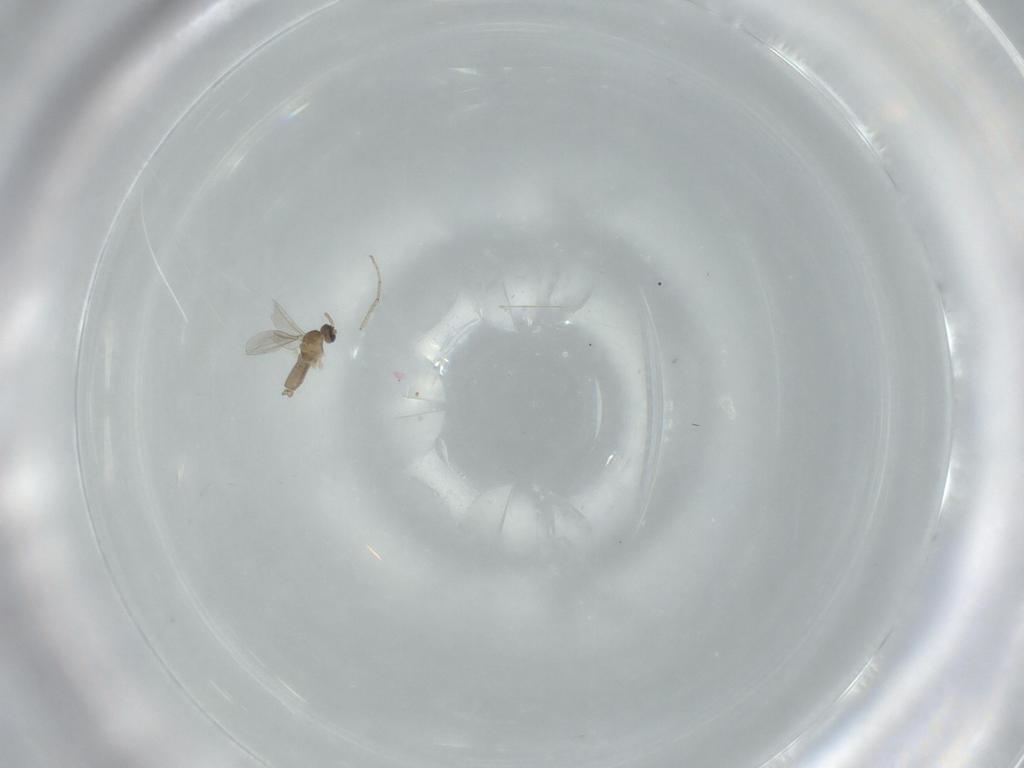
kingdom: Animalia
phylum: Arthropoda
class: Insecta
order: Diptera
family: Cecidomyiidae
